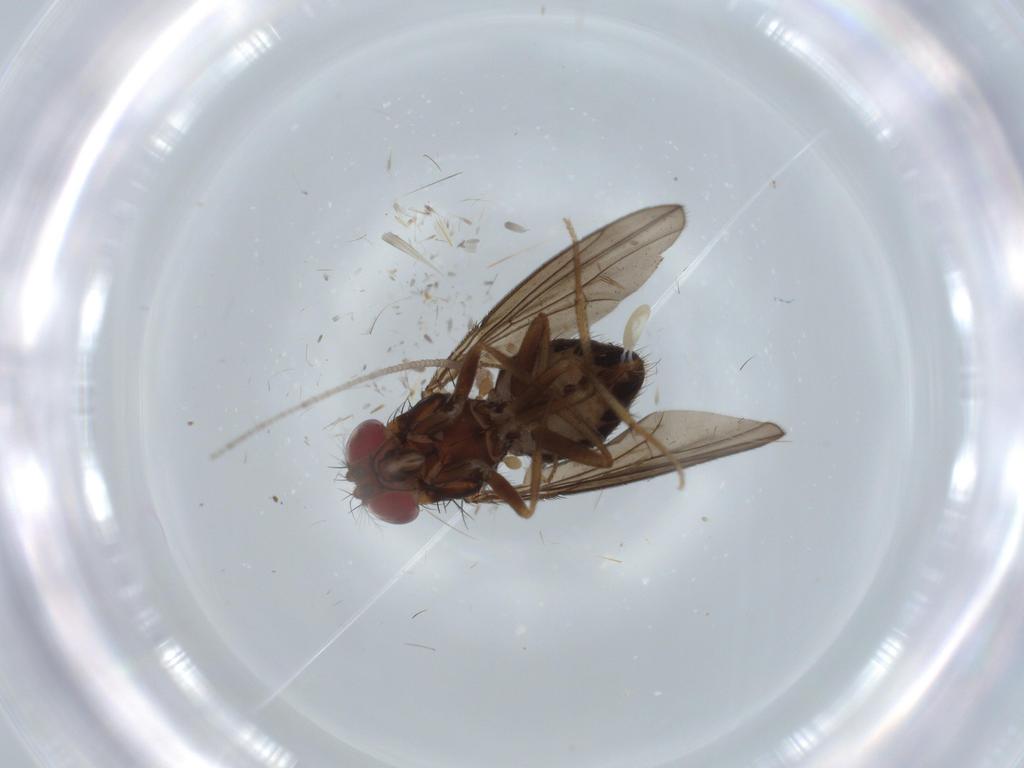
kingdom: Animalia
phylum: Arthropoda
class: Insecta
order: Diptera
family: Drosophilidae
